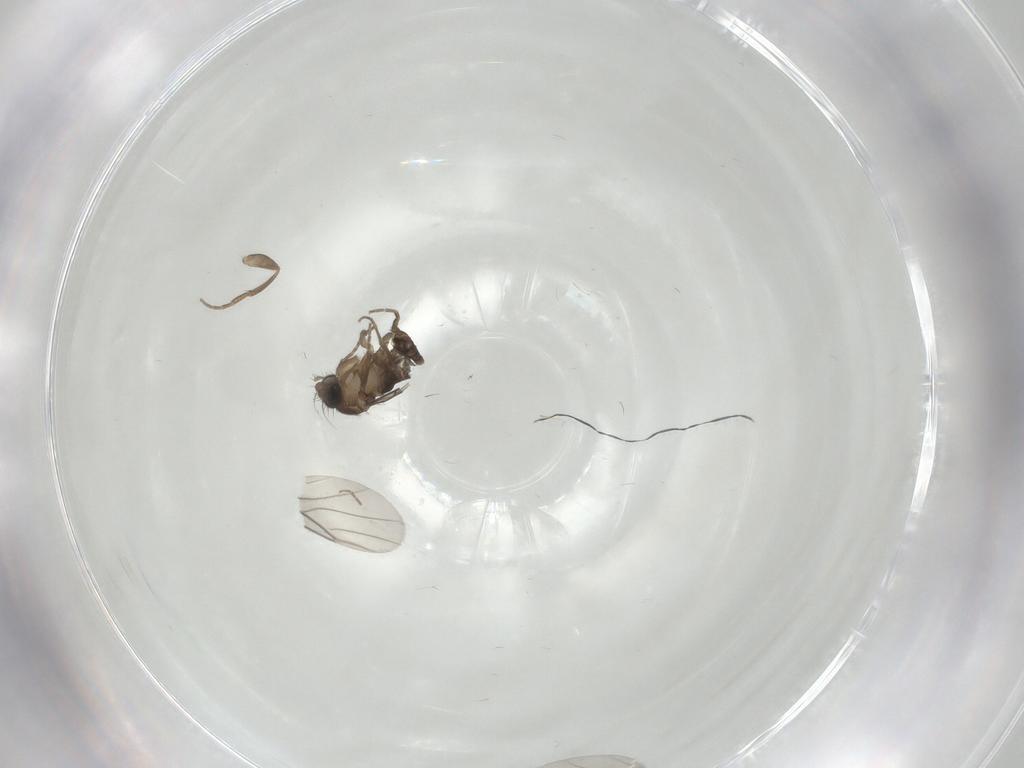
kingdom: Animalia
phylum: Arthropoda
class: Insecta
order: Diptera
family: Phoridae
